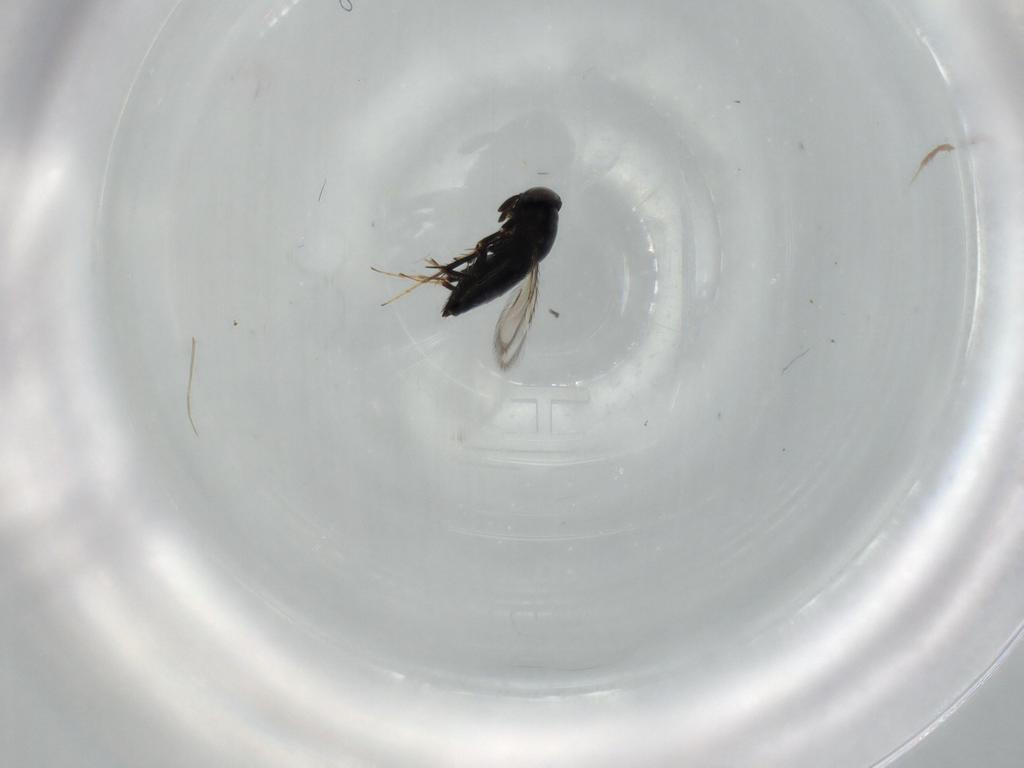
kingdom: Animalia
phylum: Arthropoda
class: Insecta
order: Hymenoptera
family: Signiphoridae
